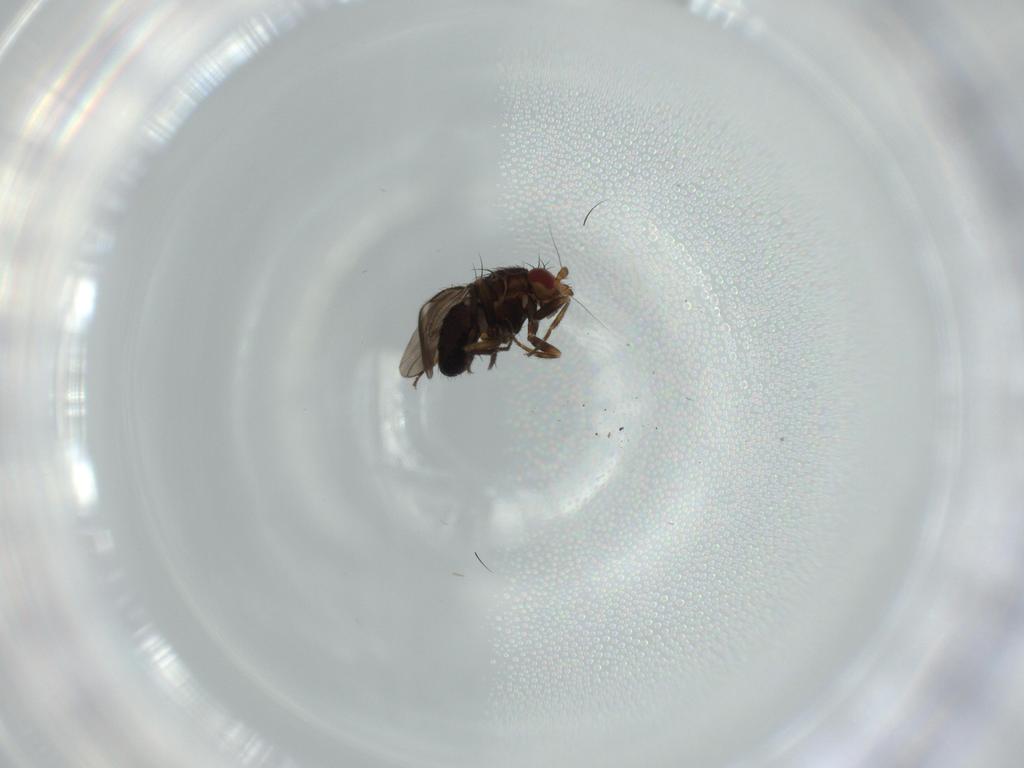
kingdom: Animalia
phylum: Arthropoda
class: Insecta
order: Diptera
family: Sphaeroceridae
